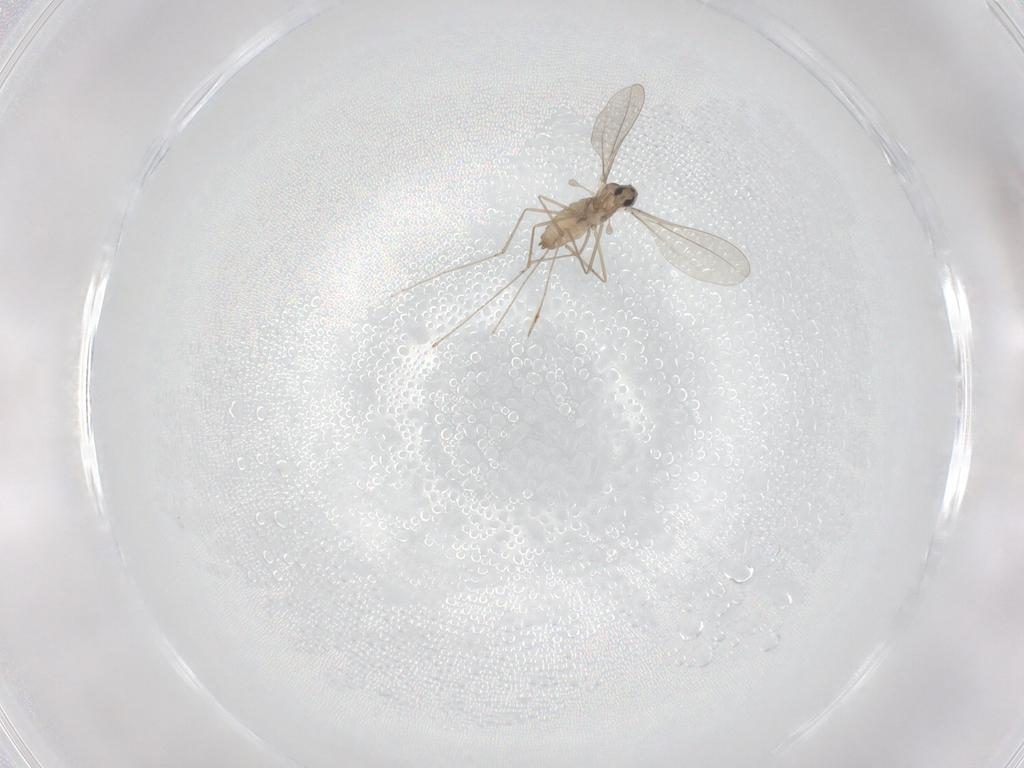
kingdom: Animalia
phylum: Arthropoda
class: Insecta
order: Diptera
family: Cecidomyiidae
